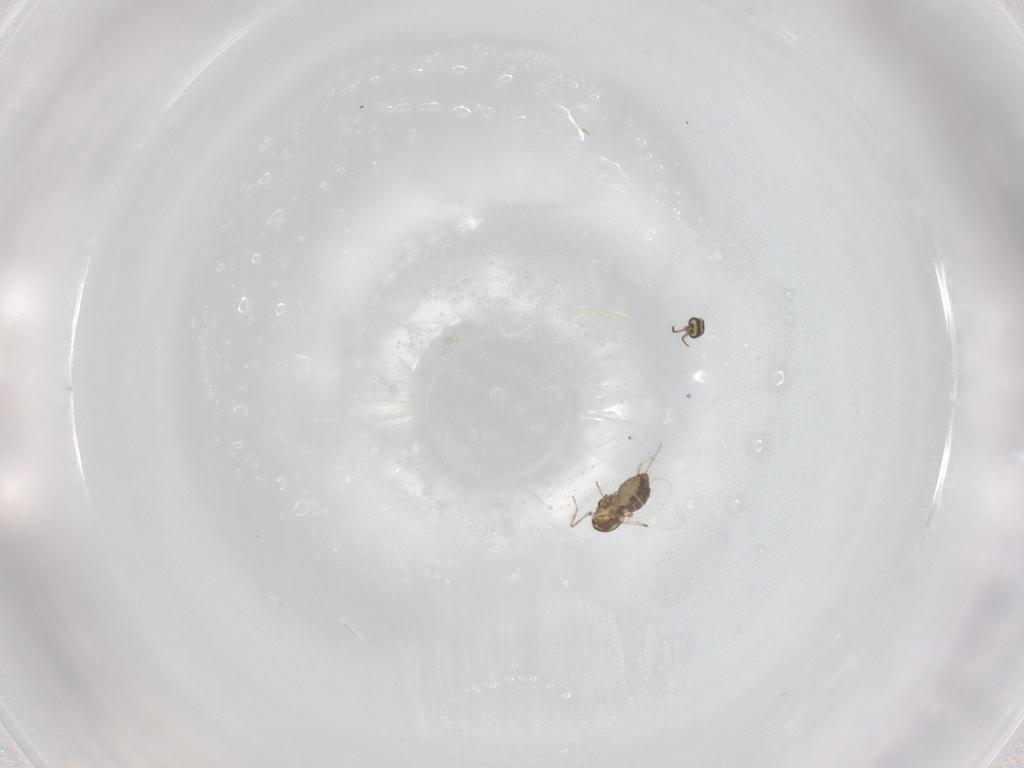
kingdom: Animalia
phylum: Arthropoda
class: Insecta
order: Diptera
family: Ceratopogonidae
